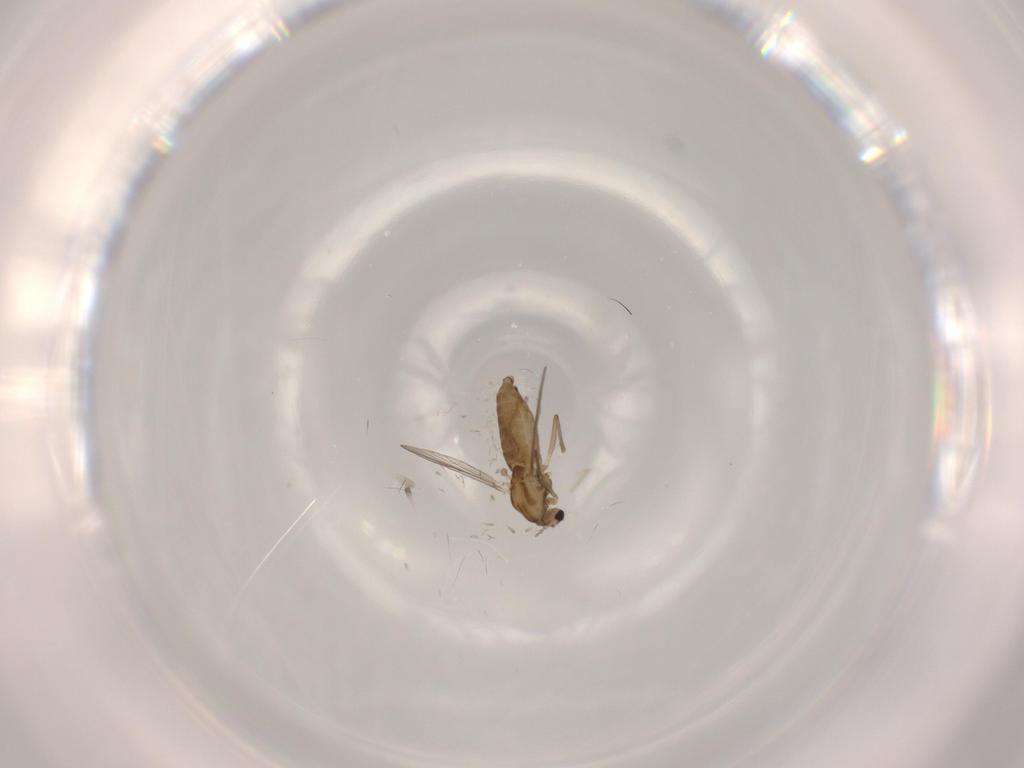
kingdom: Animalia
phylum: Arthropoda
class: Insecta
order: Diptera
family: Chironomidae
